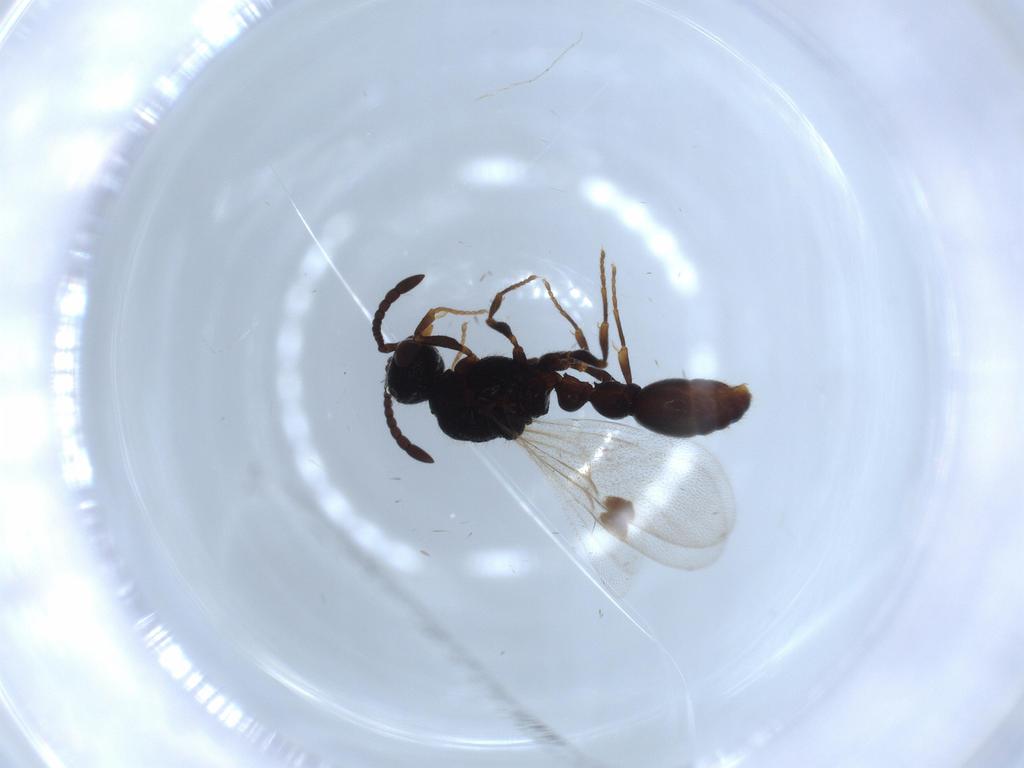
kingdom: Animalia
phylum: Arthropoda
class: Insecta
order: Hymenoptera
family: Formicidae
